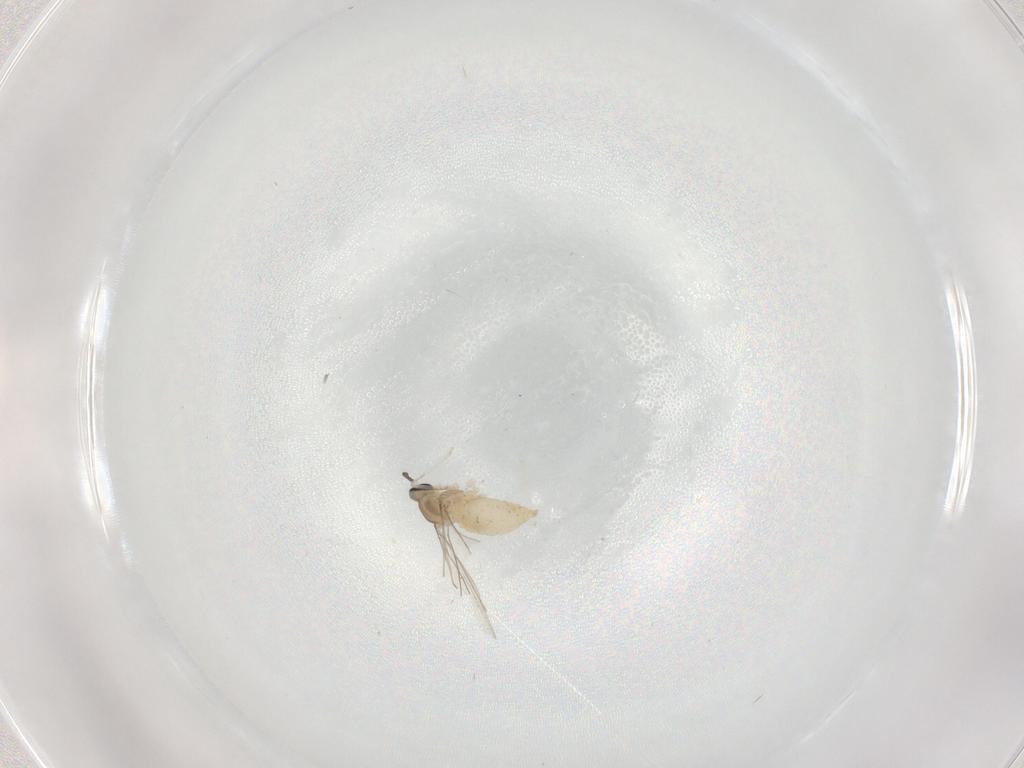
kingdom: Animalia
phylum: Arthropoda
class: Insecta
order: Diptera
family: Cecidomyiidae
